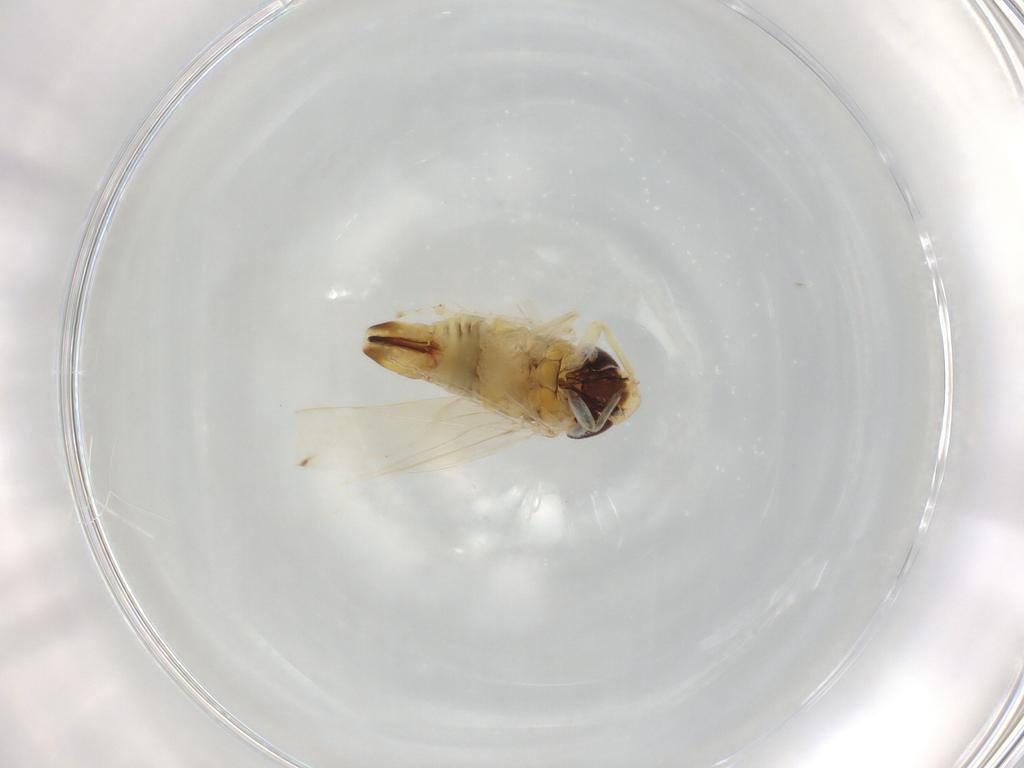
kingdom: Animalia
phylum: Arthropoda
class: Insecta
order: Hemiptera
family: Cicadellidae
